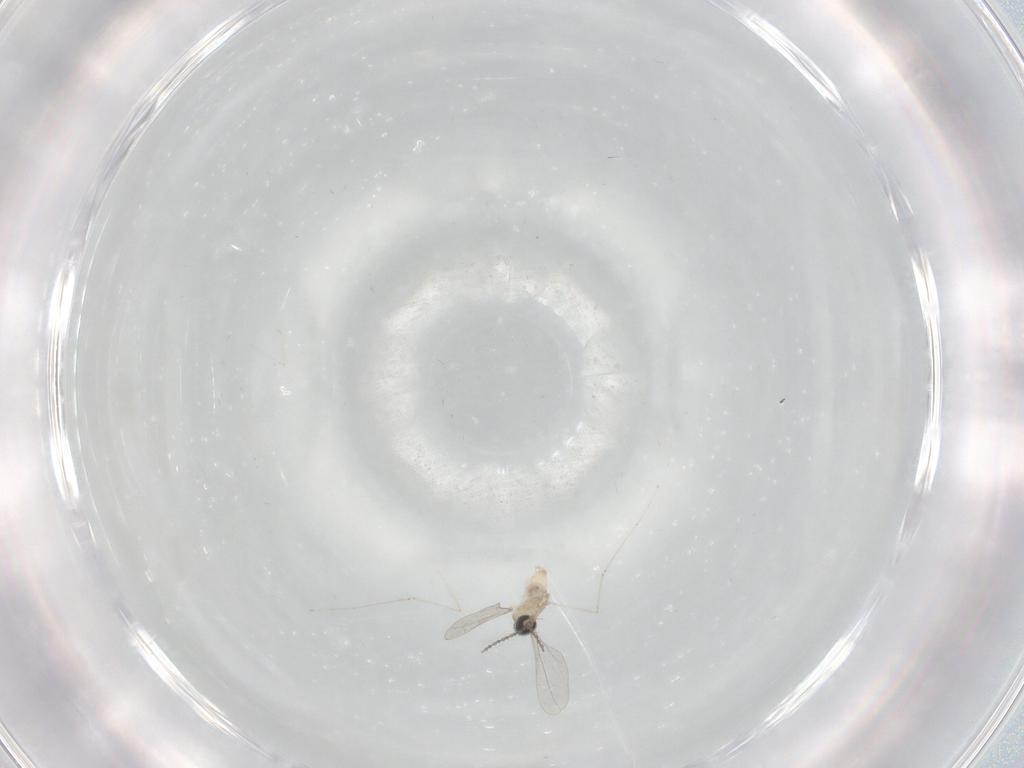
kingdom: Animalia
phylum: Arthropoda
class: Insecta
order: Diptera
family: Cecidomyiidae
